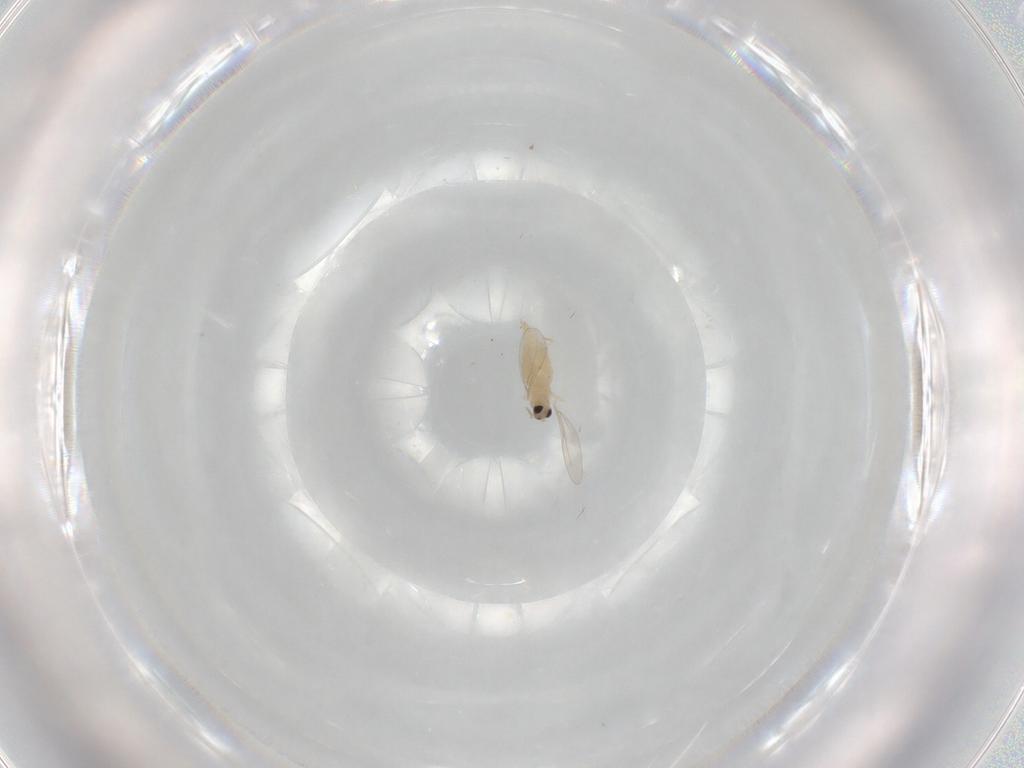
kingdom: Animalia
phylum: Arthropoda
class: Insecta
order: Diptera
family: Cecidomyiidae
